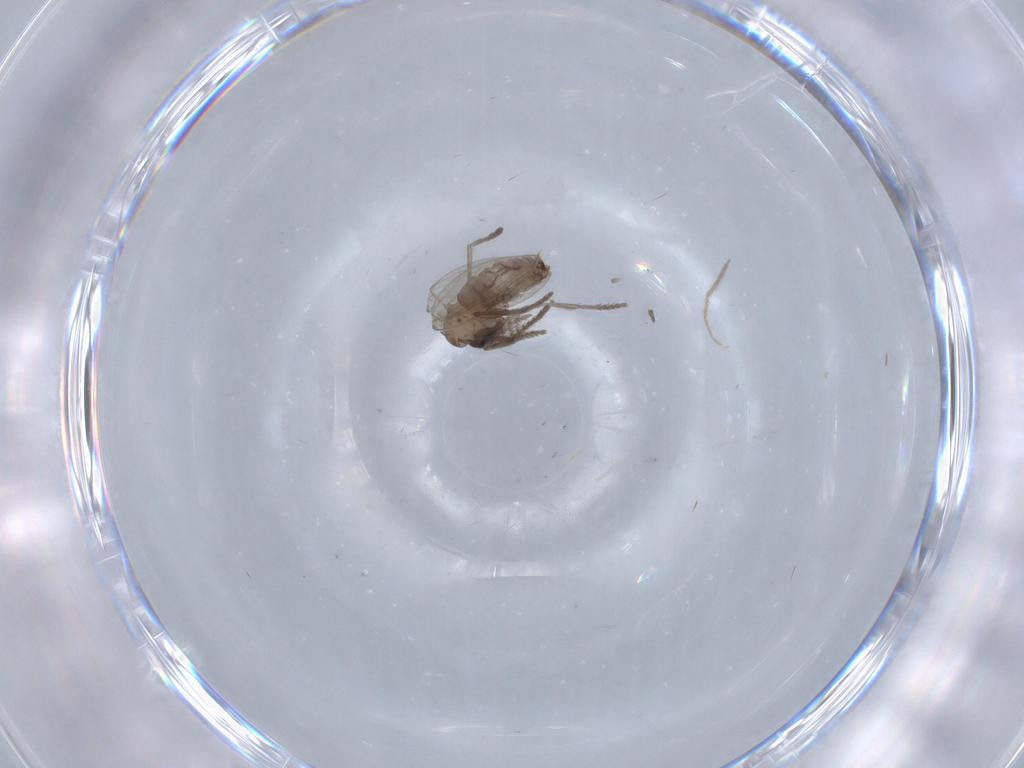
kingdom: Animalia
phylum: Arthropoda
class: Insecta
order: Diptera
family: Psychodidae
